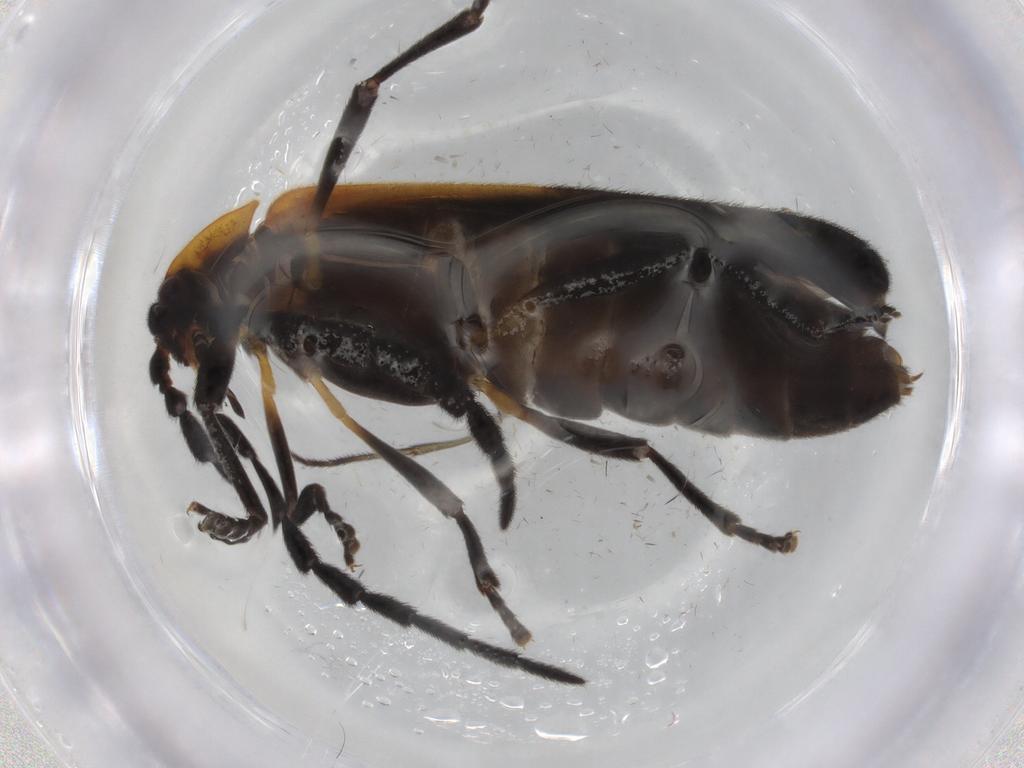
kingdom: Animalia
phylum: Arthropoda
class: Insecta
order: Coleoptera
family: Lycidae
